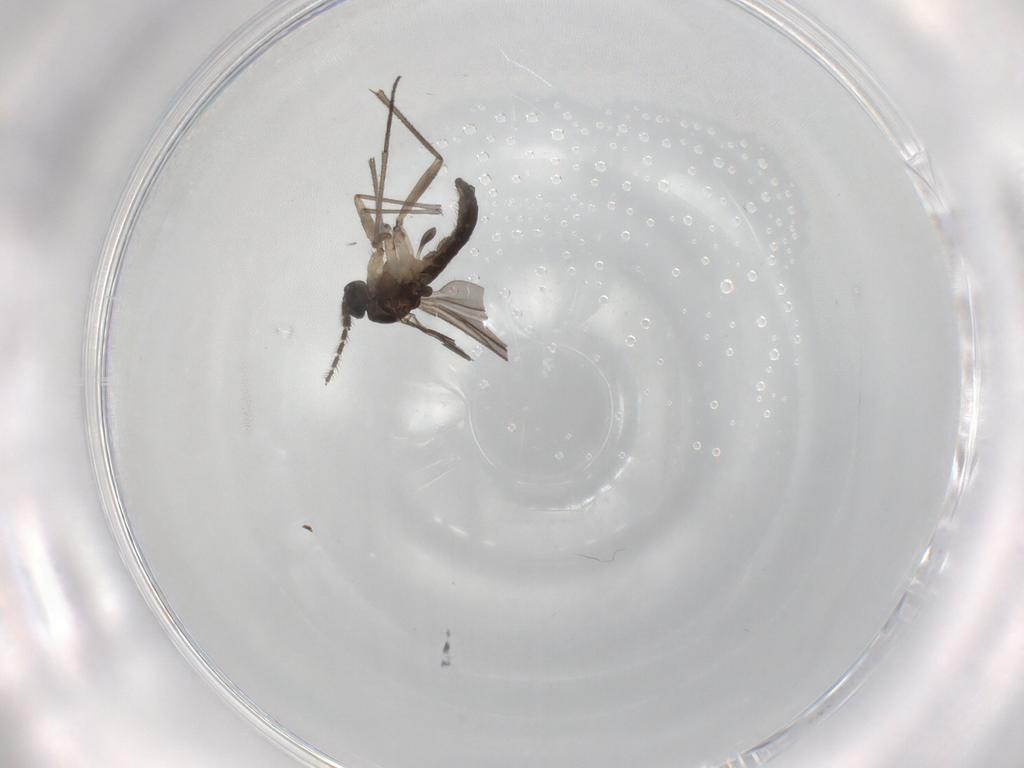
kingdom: Animalia
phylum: Arthropoda
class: Insecta
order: Diptera
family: Sciaridae
